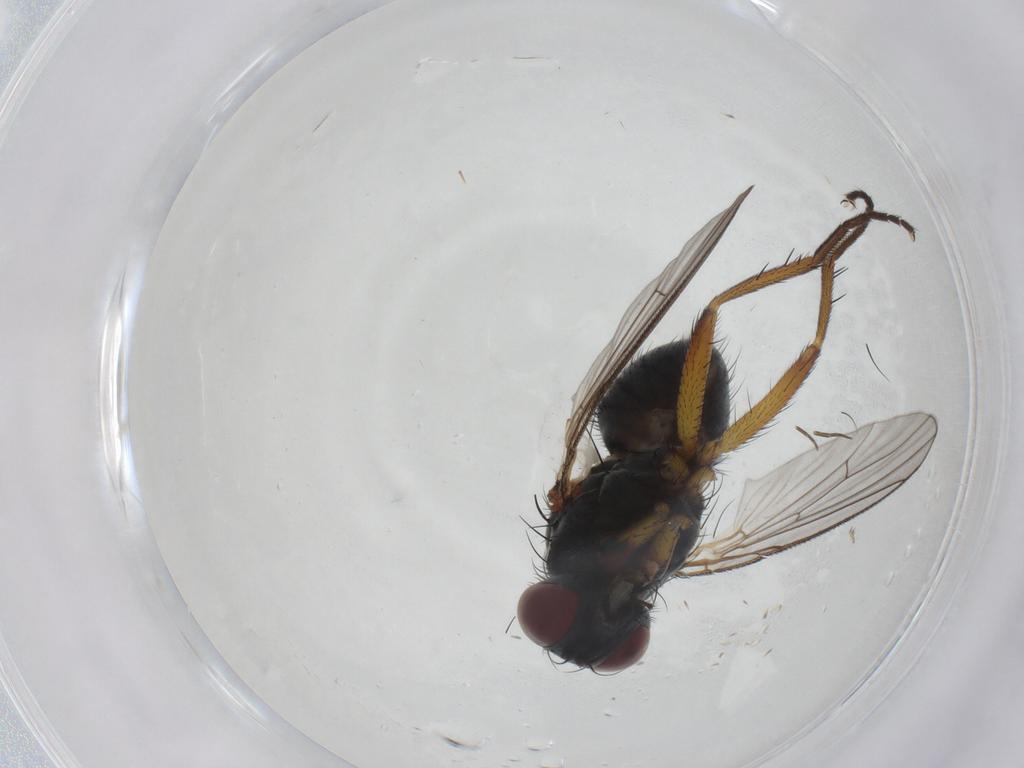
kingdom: Animalia
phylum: Arthropoda
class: Insecta
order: Diptera
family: Muscidae
